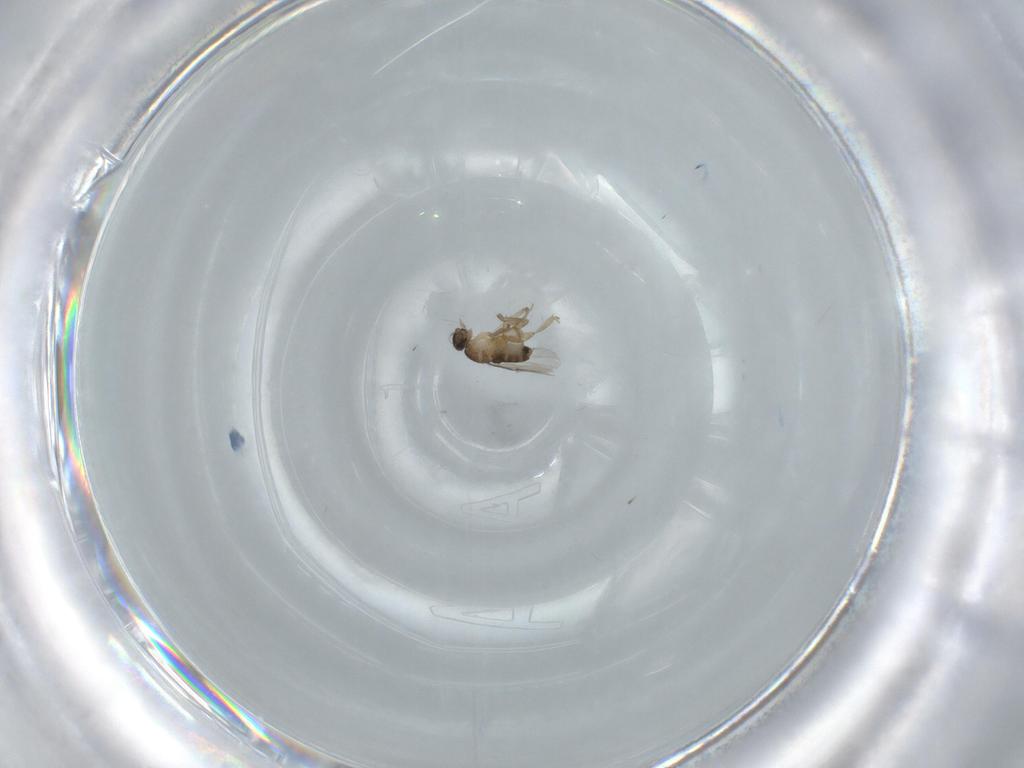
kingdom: Animalia
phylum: Arthropoda
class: Insecta
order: Diptera
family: Phoridae
